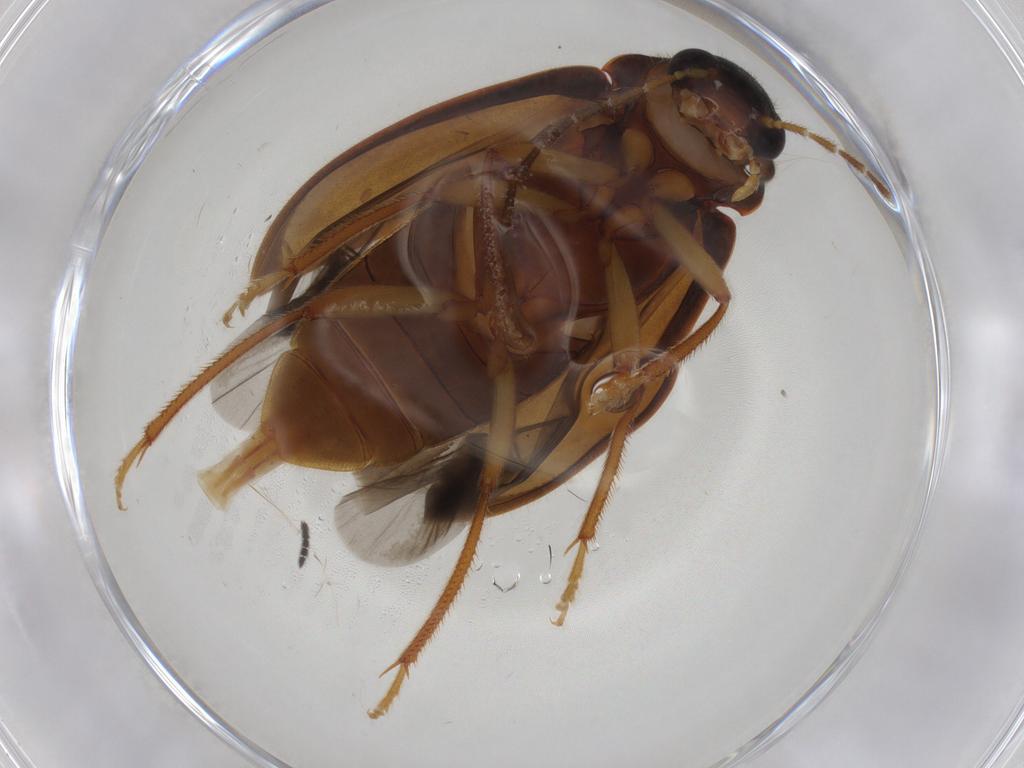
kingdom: Animalia
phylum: Arthropoda
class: Insecta
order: Coleoptera
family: Ptilodactylidae
